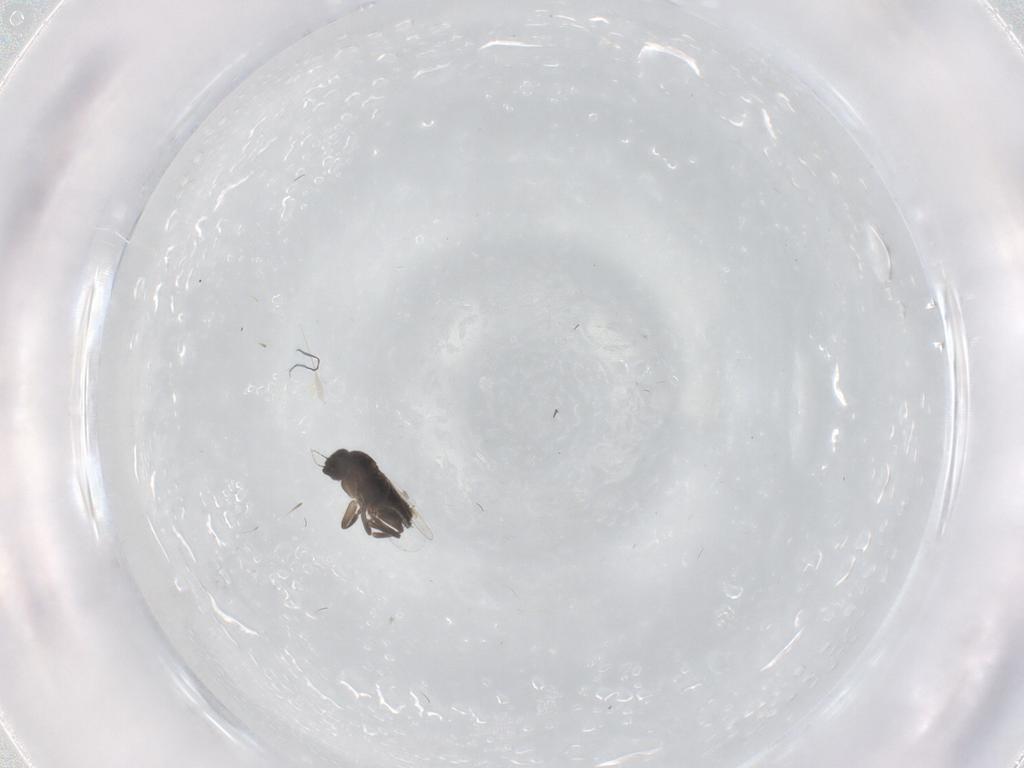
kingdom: Animalia
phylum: Arthropoda
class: Insecta
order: Diptera
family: Phoridae
